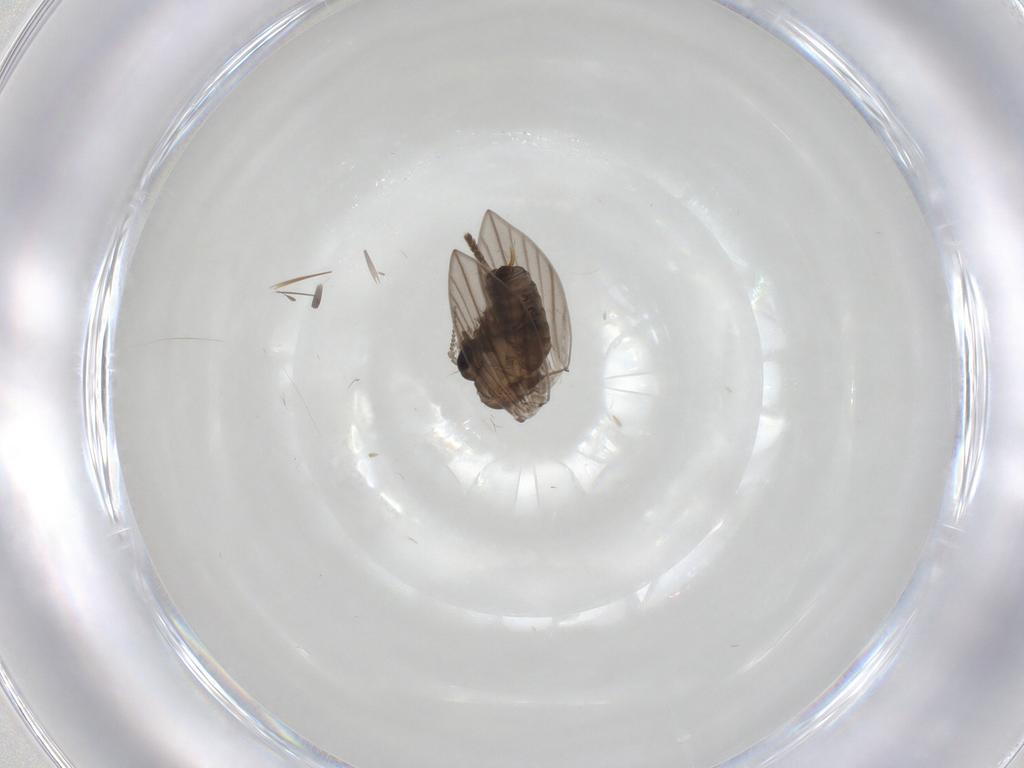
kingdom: Animalia
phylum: Arthropoda
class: Insecta
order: Diptera
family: Psychodidae
